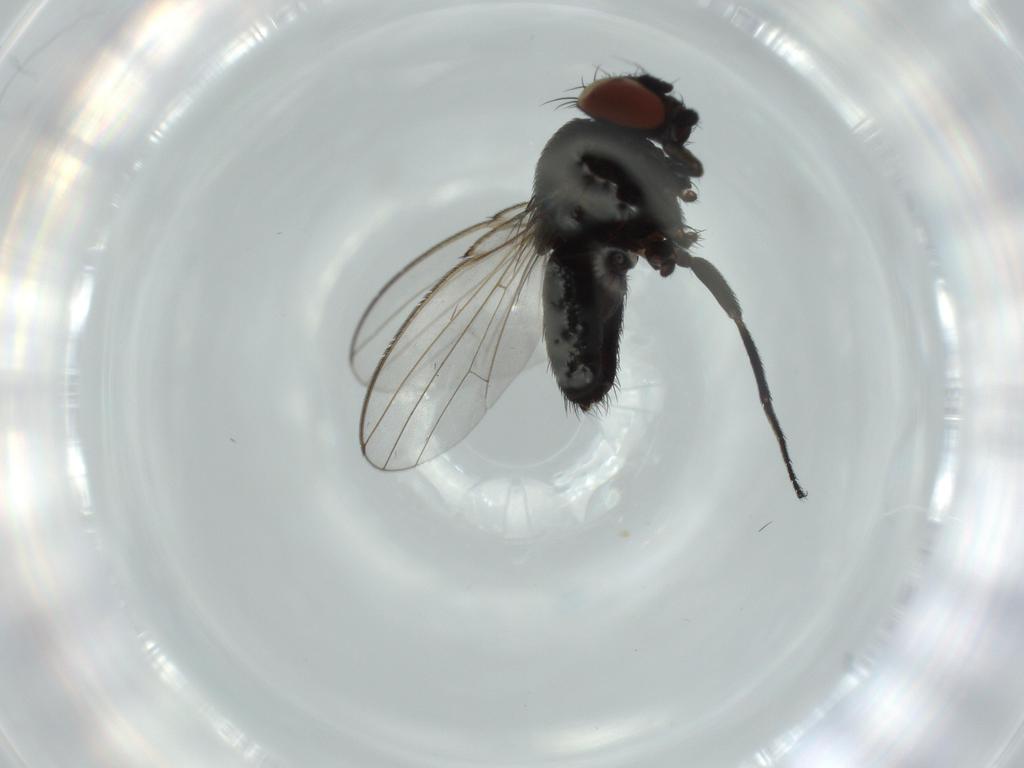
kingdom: Animalia
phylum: Arthropoda
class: Insecta
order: Diptera
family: Milichiidae
